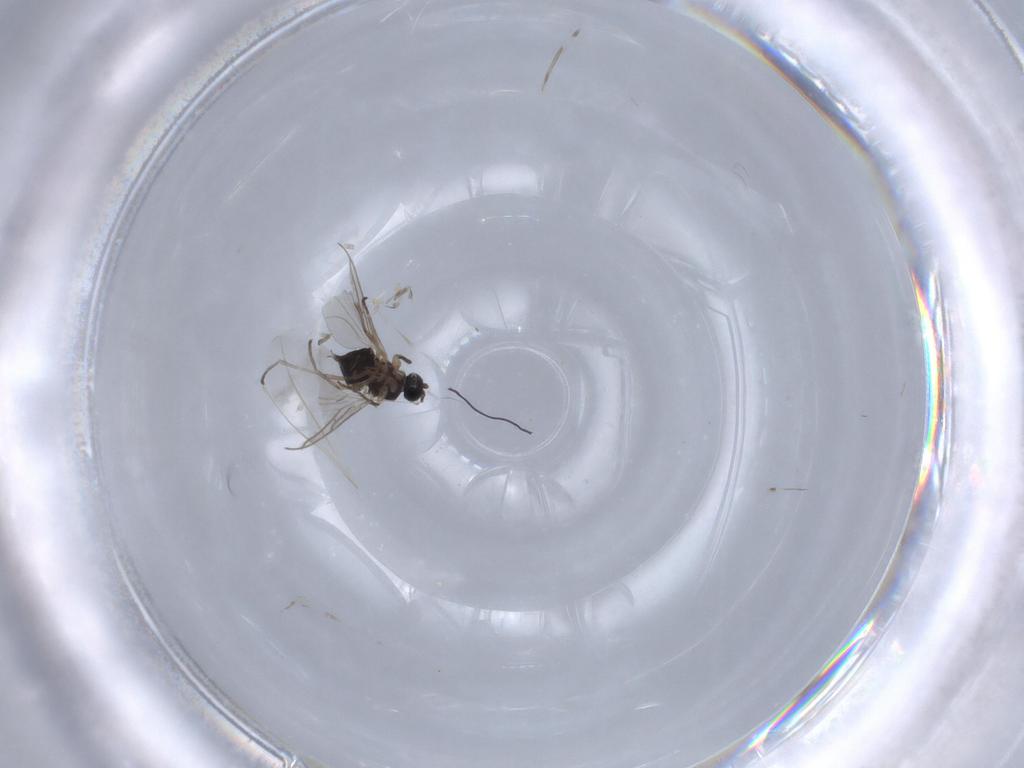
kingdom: Animalia
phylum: Arthropoda
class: Insecta
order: Diptera
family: Sciaridae
